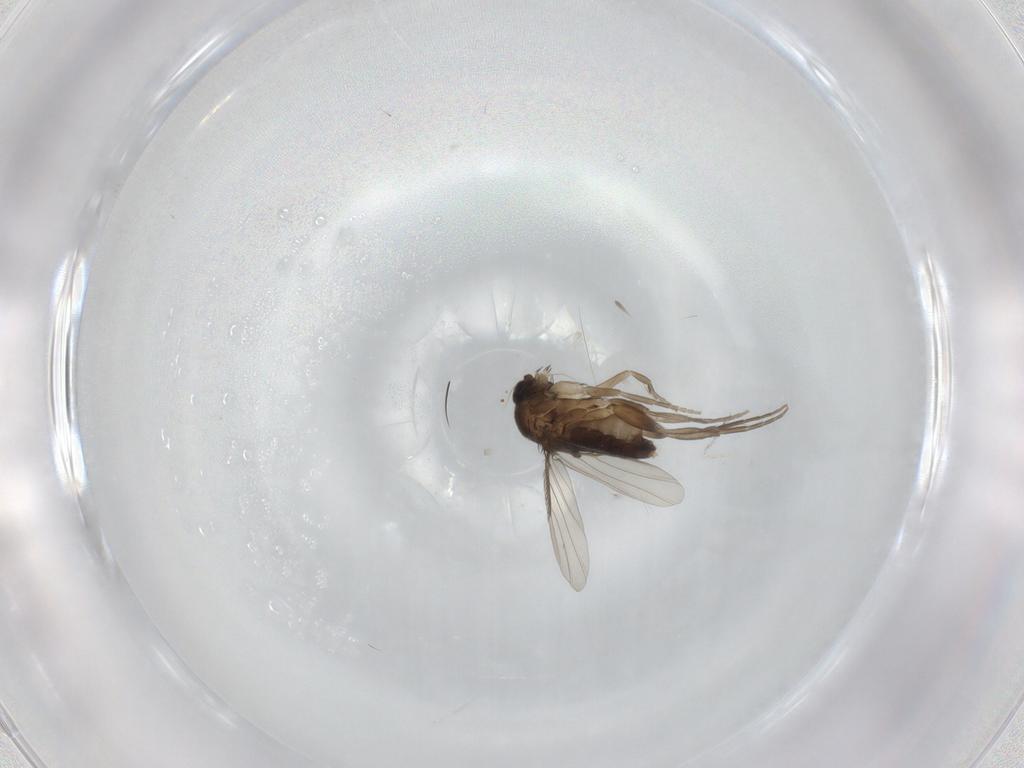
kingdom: Animalia
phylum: Arthropoda
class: Insecta
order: Diptera
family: Phoridae
